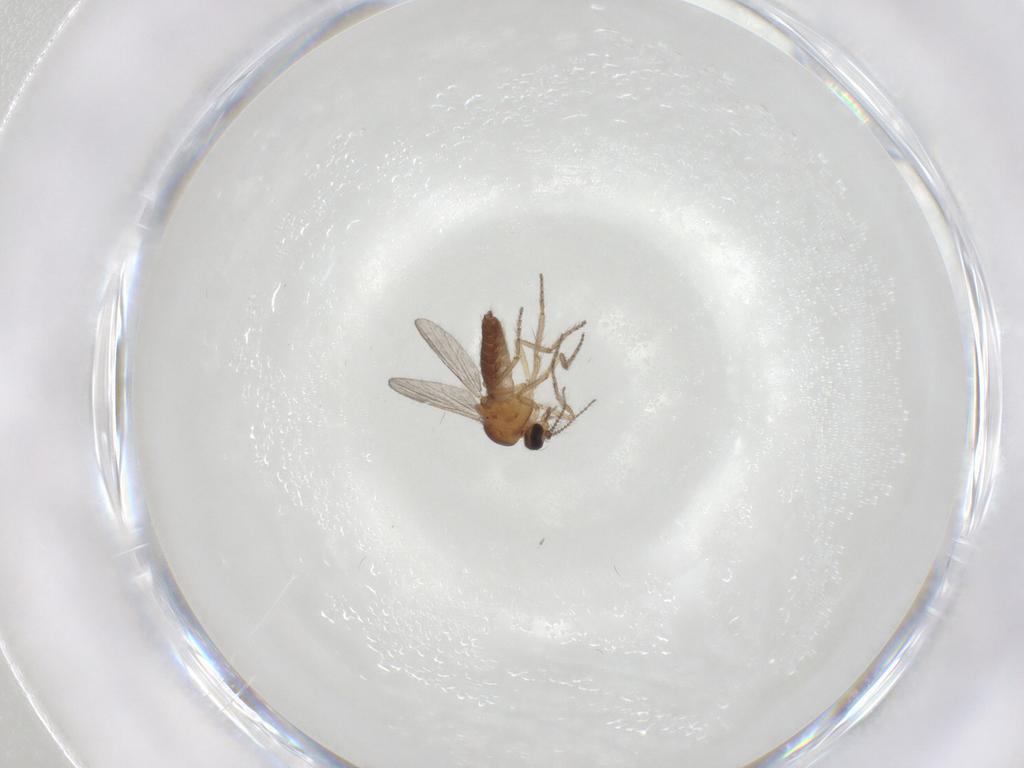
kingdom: Animalia
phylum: Arthropoda
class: Insecta
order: Diptera
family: Ceratopogonidae
